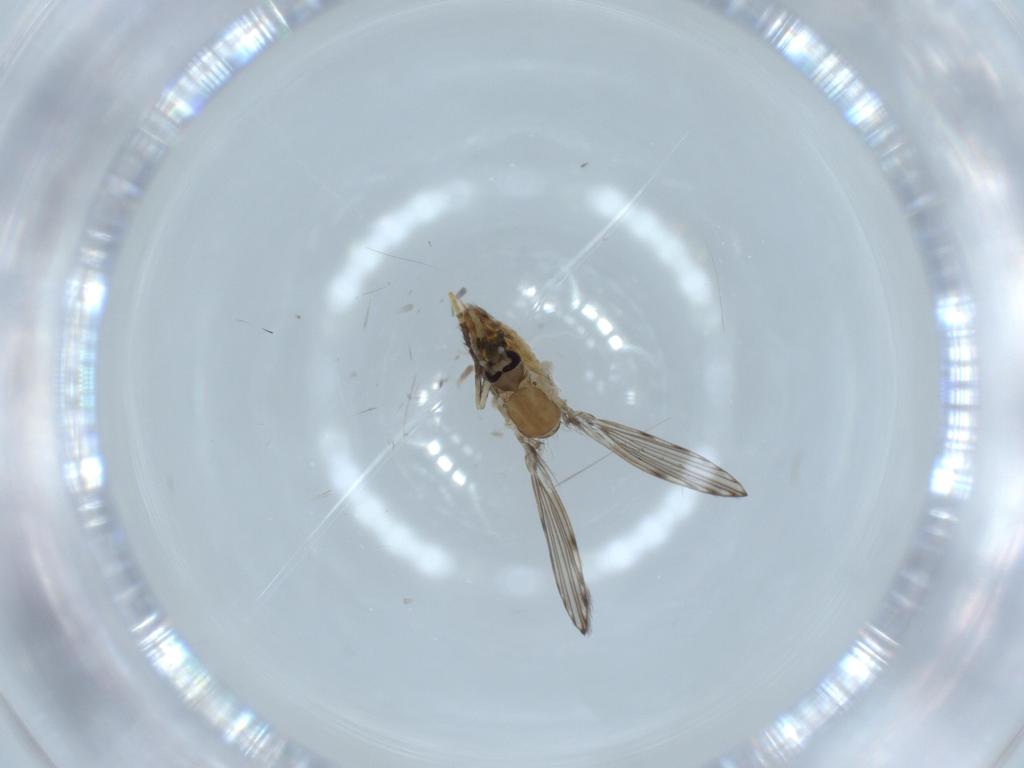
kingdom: Animalia
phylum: Arthropoda
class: Insecta
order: Diptera
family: Psychodidae
